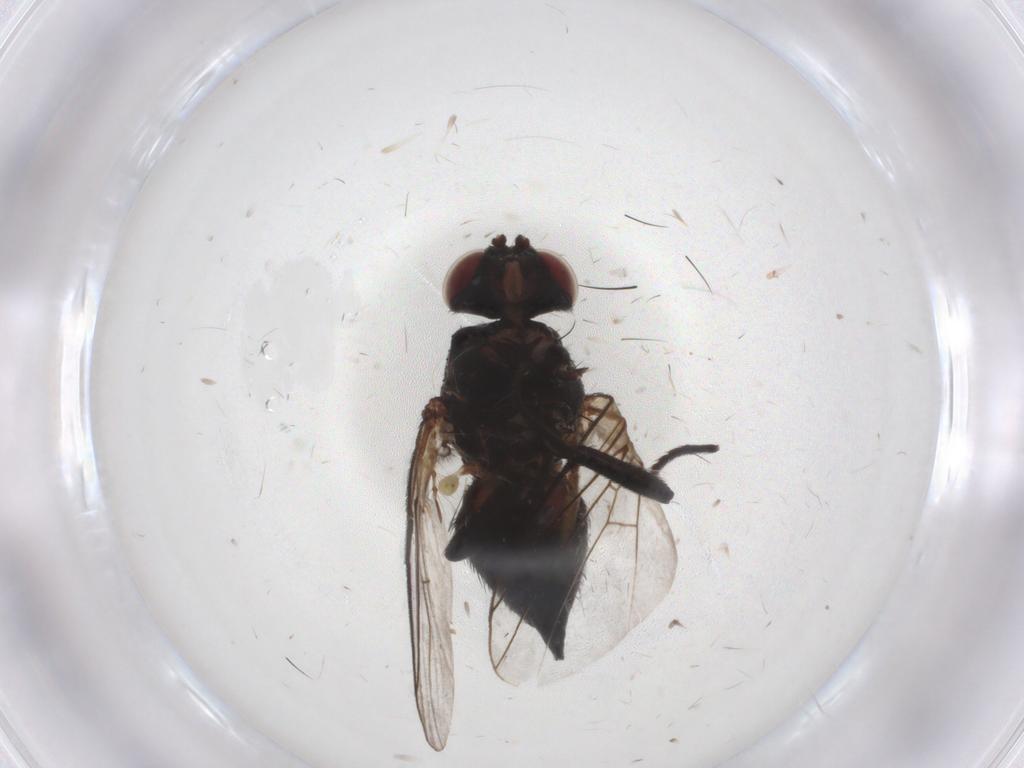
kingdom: Animalia
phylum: Arthropoda
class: Insecta
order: Diptera
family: Agromyzidae
